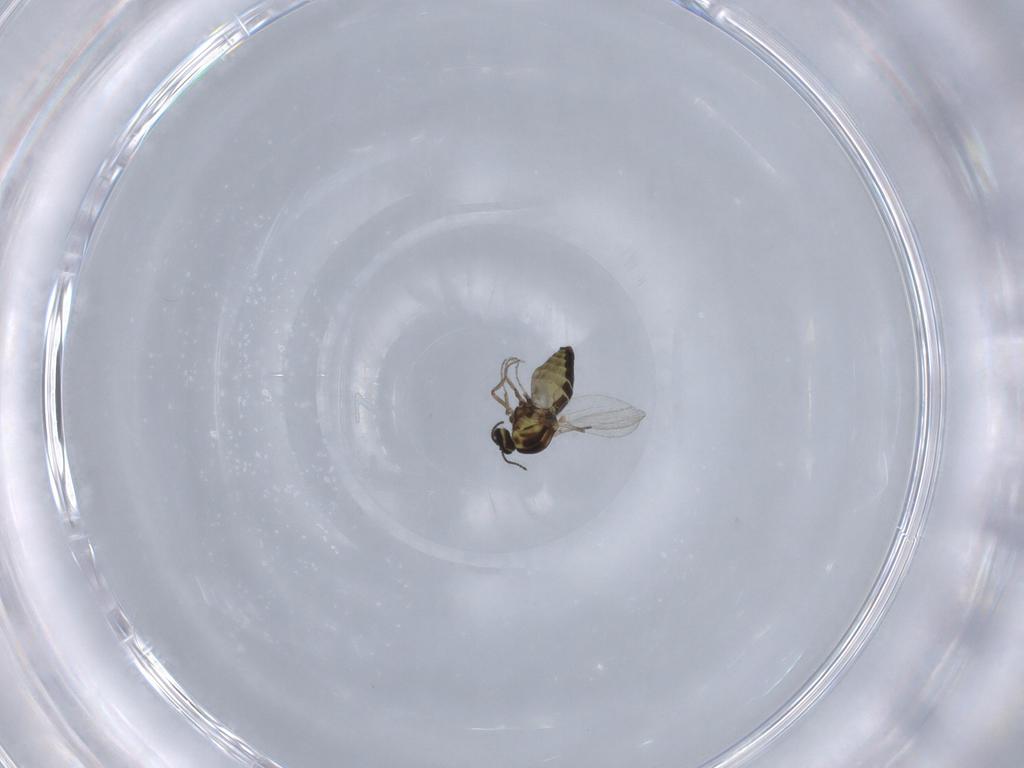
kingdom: Animalia
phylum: Arthropoda
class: Insecta
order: Diptera
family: Ceratopogonidae
